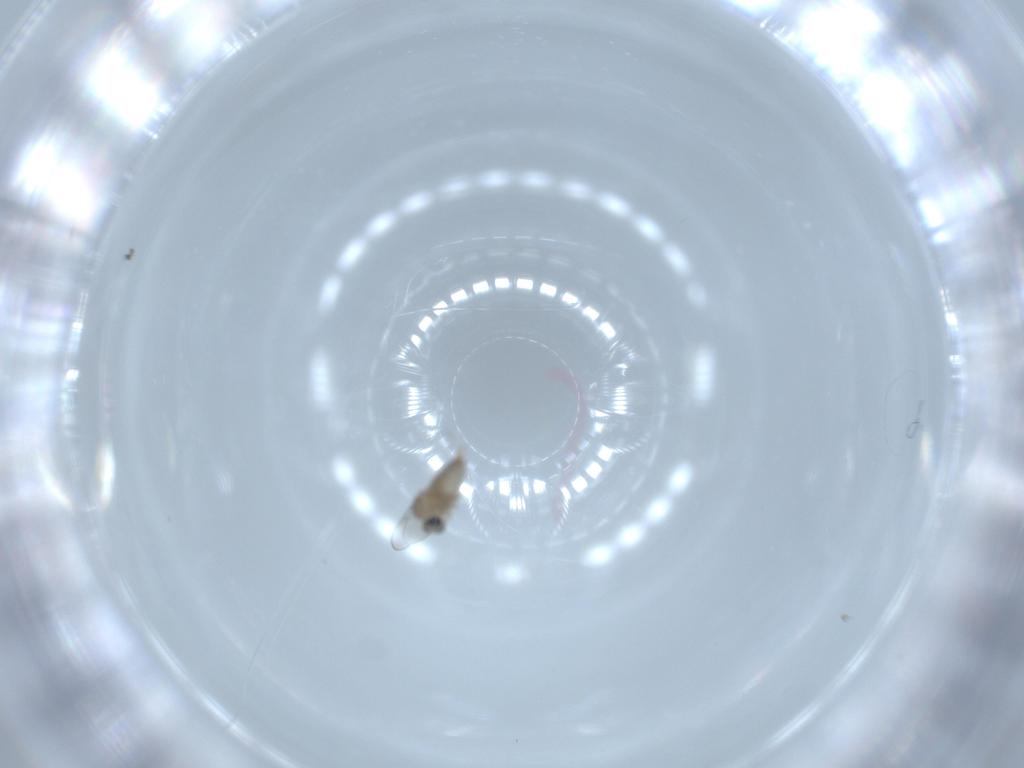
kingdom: Animalia
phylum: Arthropoda
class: Insecta
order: Diptera
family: Cecidomyiidae
